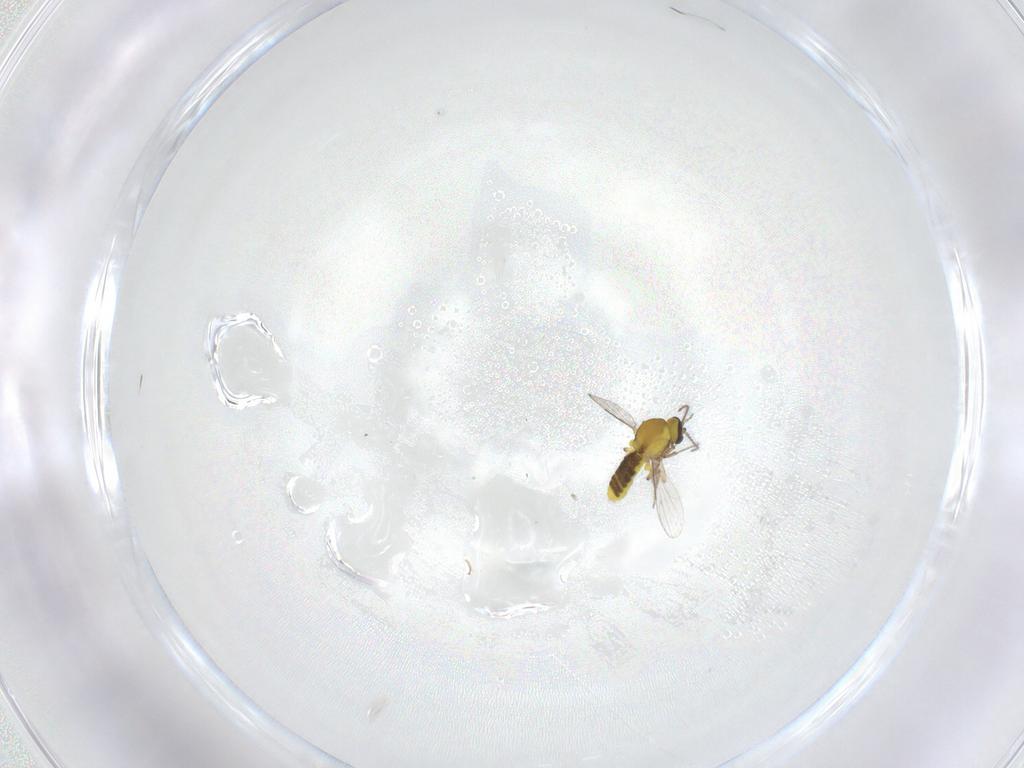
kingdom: Animalia
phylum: Arthropoda
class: Insecta
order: Diptera
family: Ceratopogonidae
